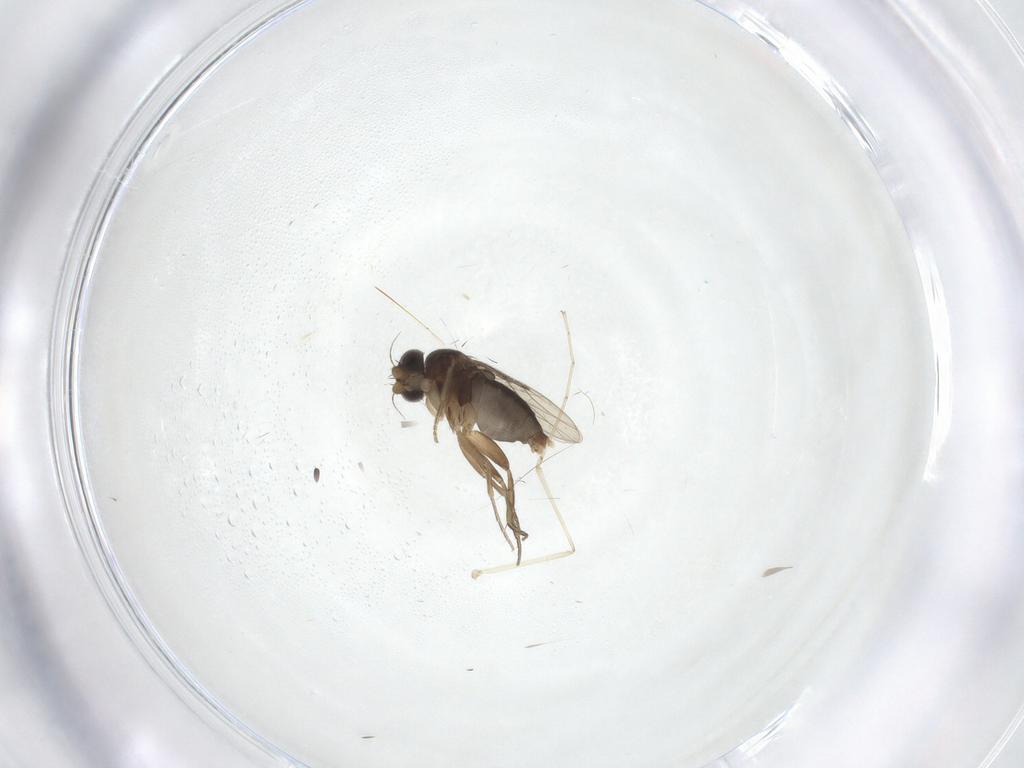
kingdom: Animalia
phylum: Arthropoda
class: Insecta
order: Diptera
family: Phoridae
